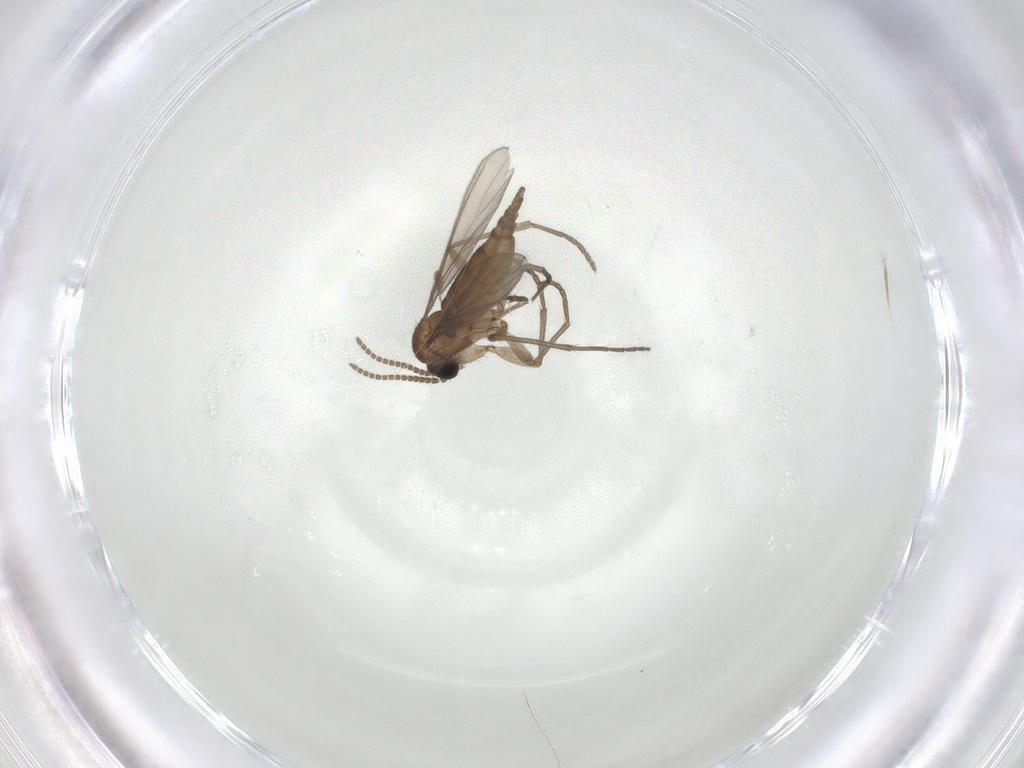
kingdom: Animalia
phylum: Arthropoda
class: Insecta
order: Diptera
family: Sciaridae
